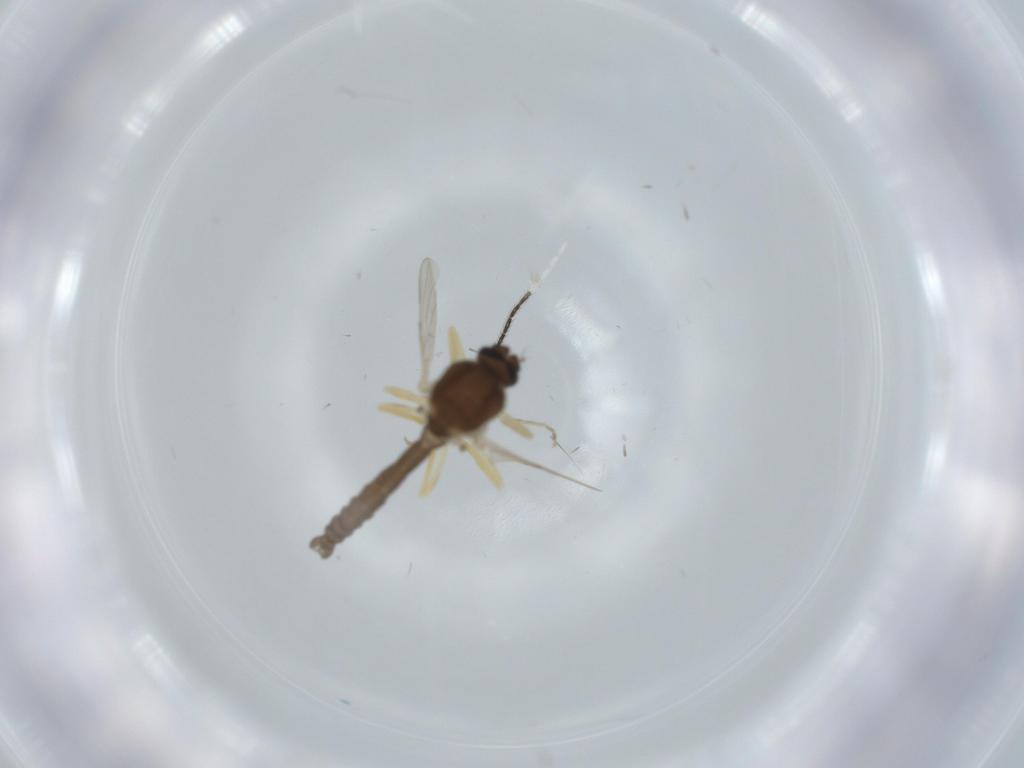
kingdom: Animalia
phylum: Arthropoda
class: Insecta
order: Diptera
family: Ceratopogonidae
